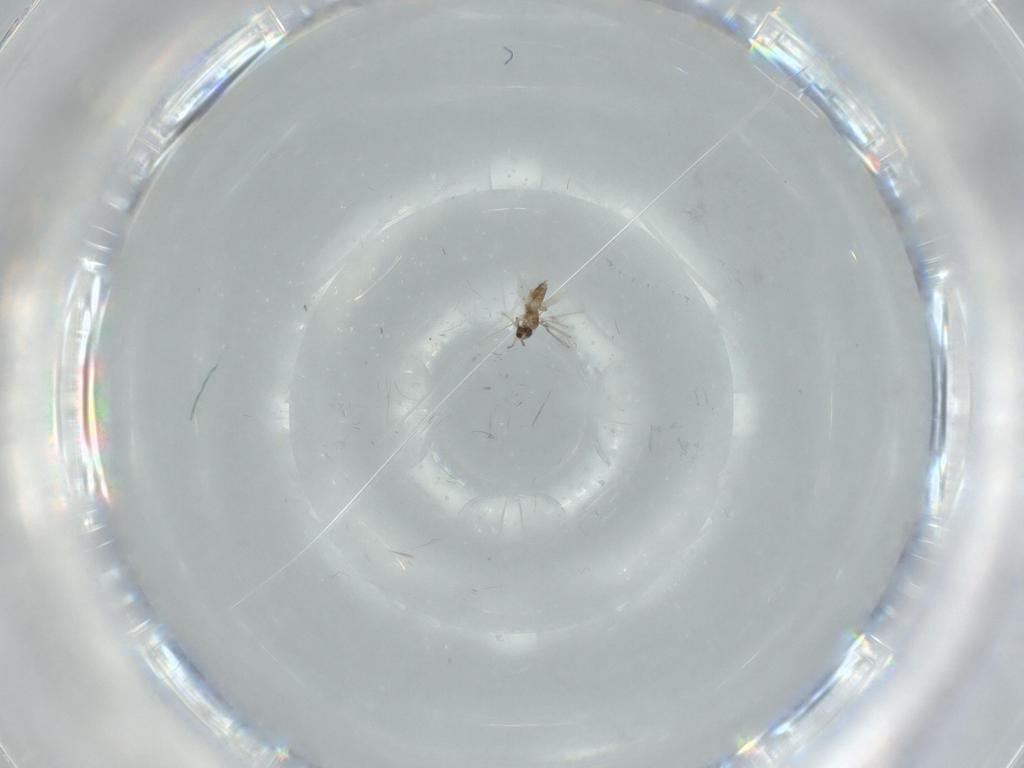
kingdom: Animalia
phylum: Arthropoda
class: Insecta
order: Hymenoptera
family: Mymaridae
